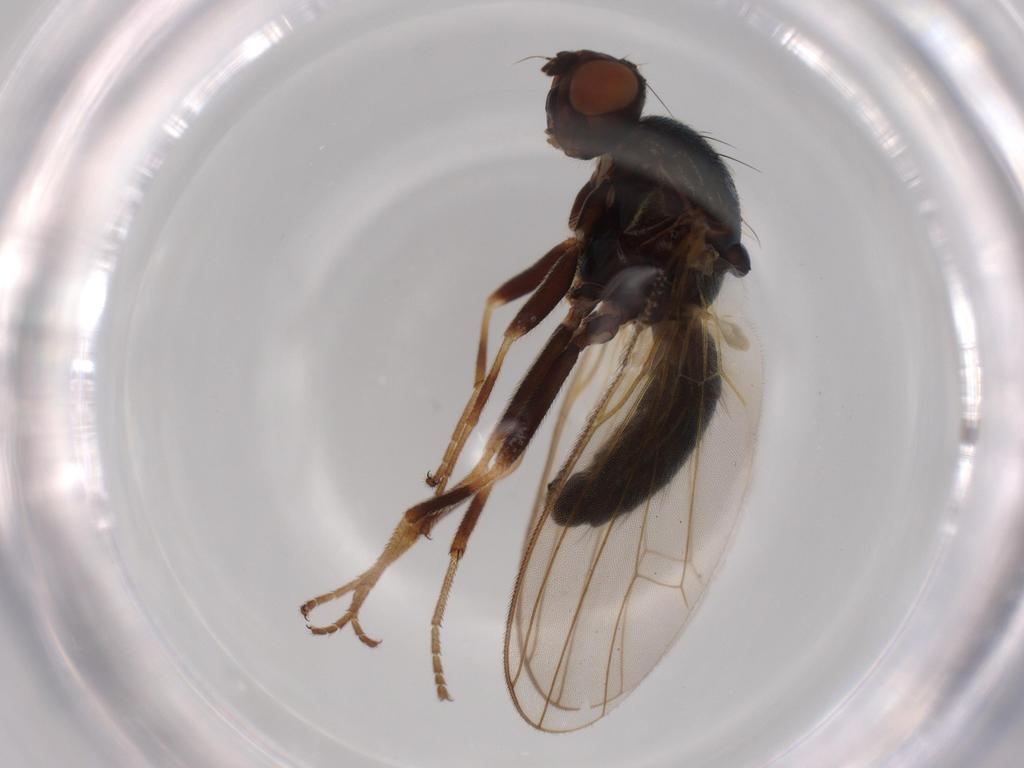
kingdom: Animalia
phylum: Arthropoda
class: Insecta
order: Diptera
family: Hybotidae
